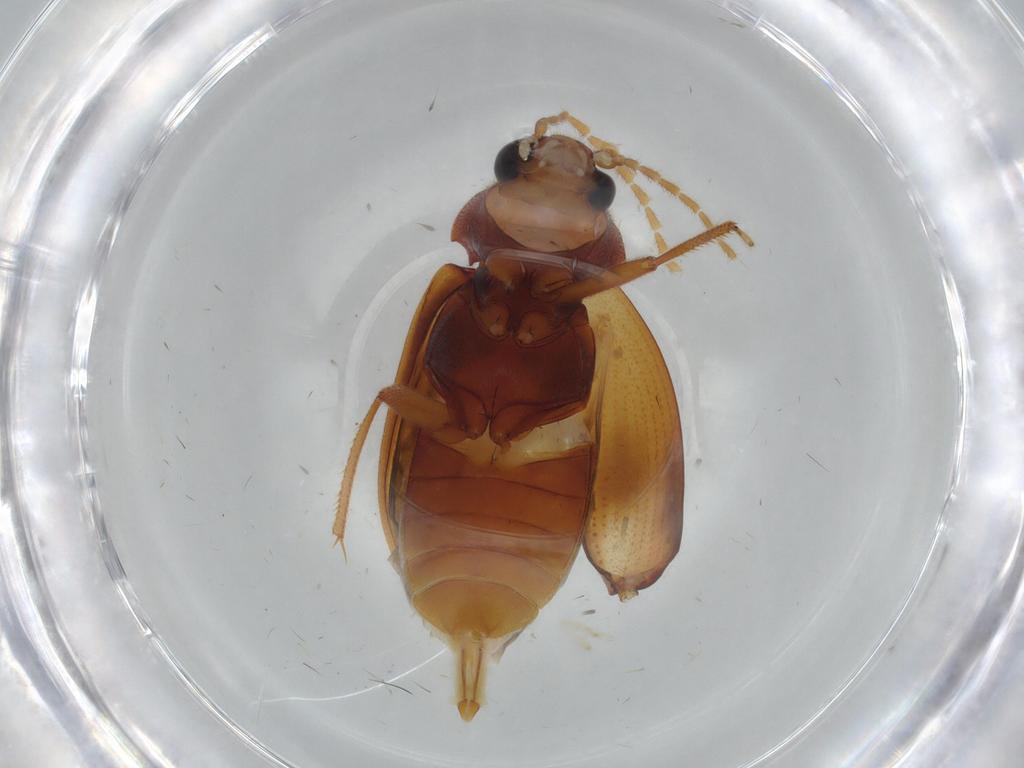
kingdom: Animalia
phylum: Arthropoda
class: Insecta
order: Coleoptera
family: Ptilodactylidae
